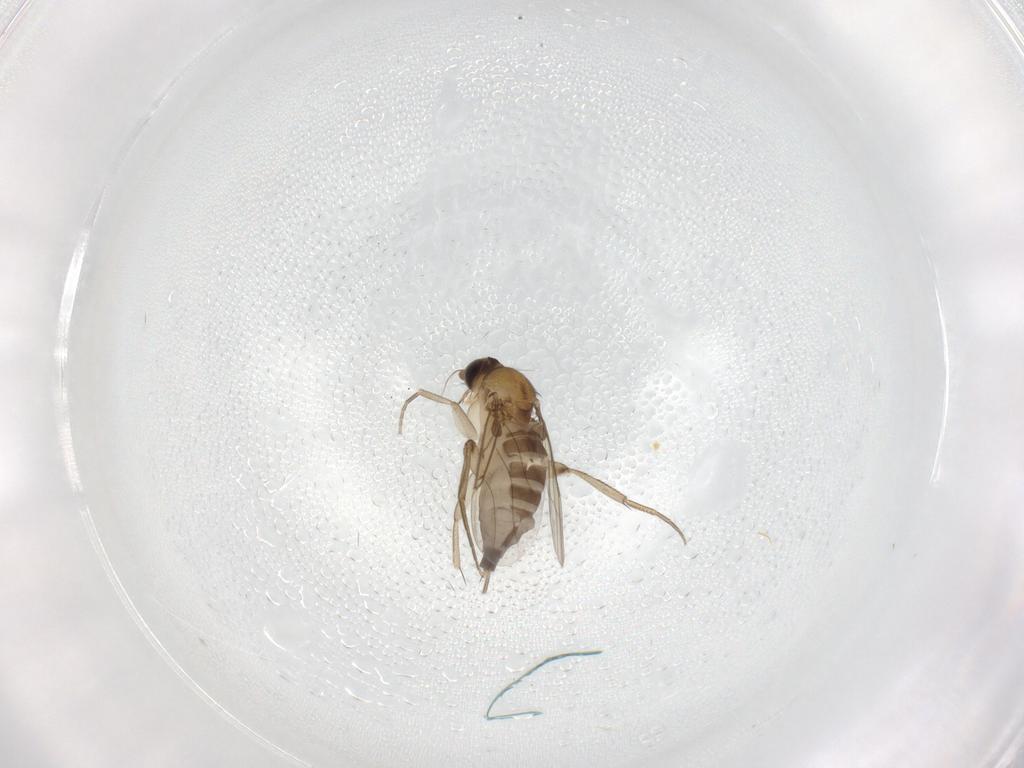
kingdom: Animalia
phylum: Arthropoda
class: Insecta
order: Diptera
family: Phoridae
